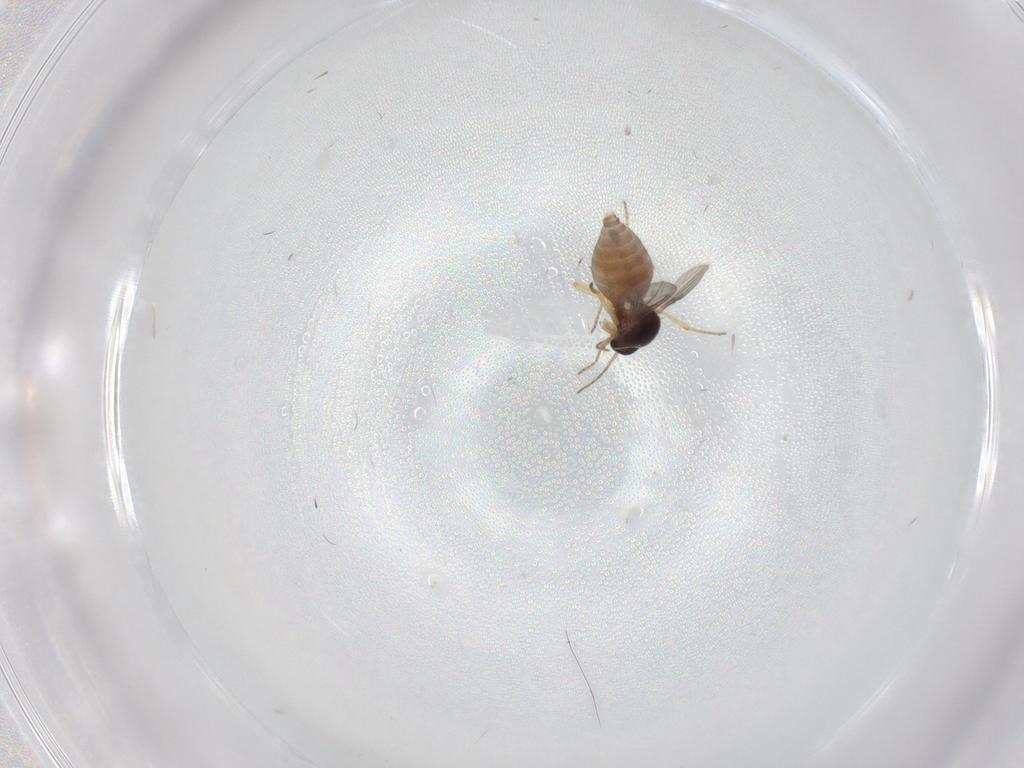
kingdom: Animalia
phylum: Arthropoda
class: Insecta
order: Diptera
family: Ceratopogonidae
